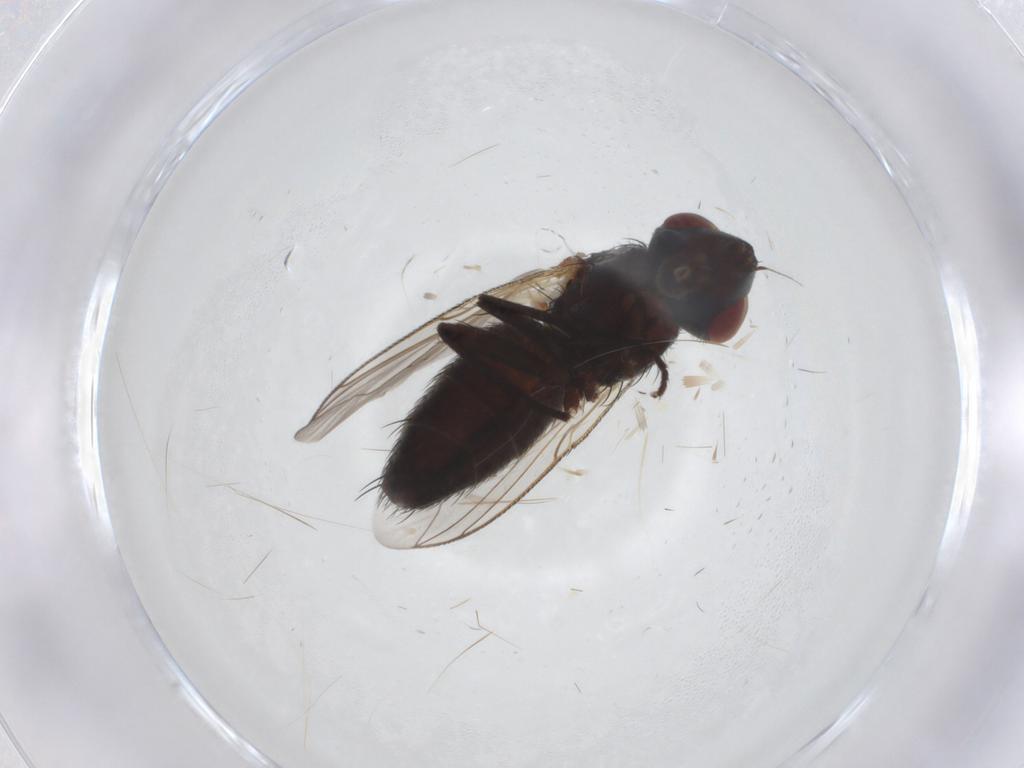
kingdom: Animalia
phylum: Arthropoda
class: Insecta
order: Diptera
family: Sarcophagidae
